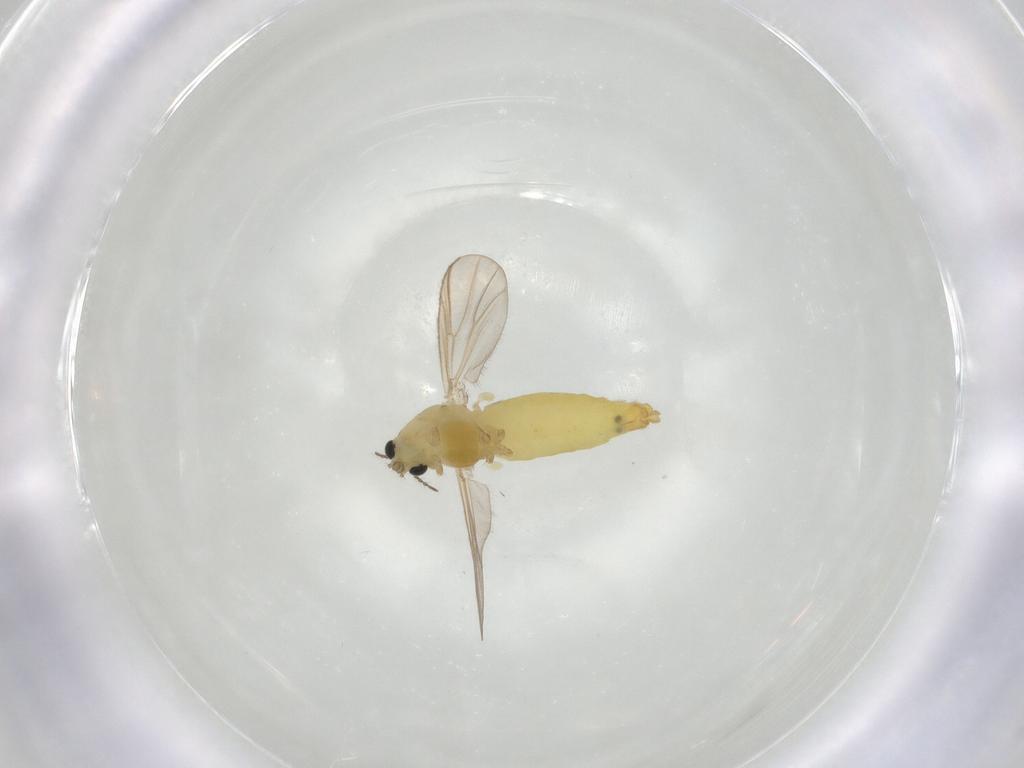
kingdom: Animalia
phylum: Arthropoda
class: Insecta
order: Diptera
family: Chironomidae
